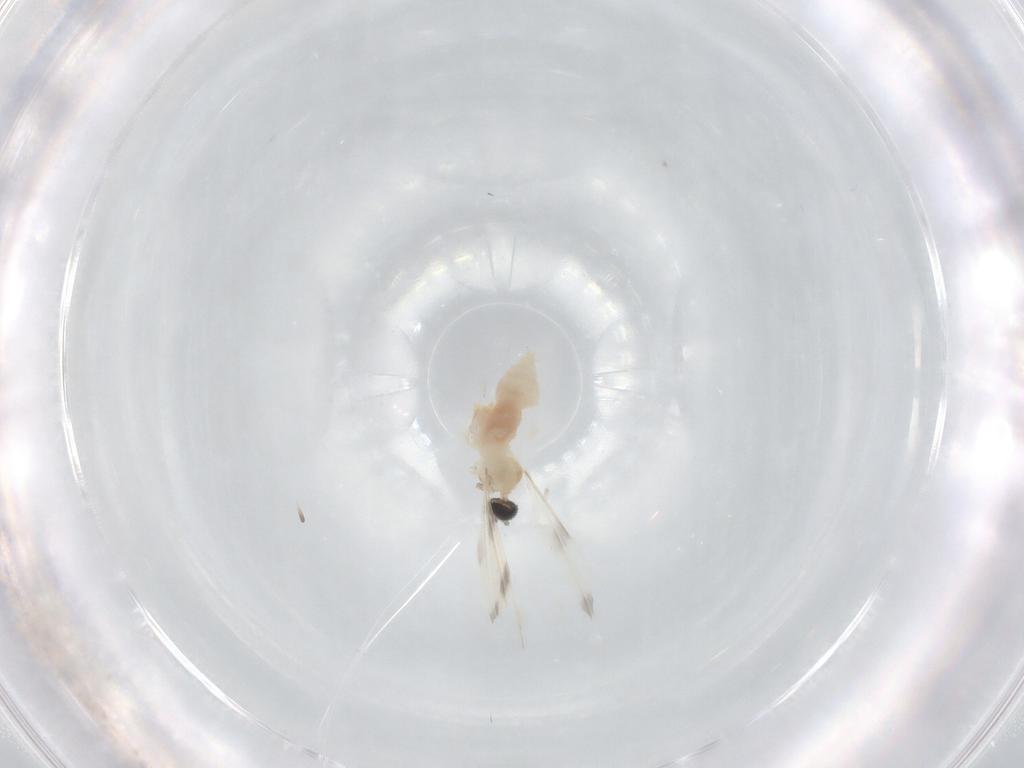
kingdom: Animalia
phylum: Arthropoda
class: Insecta
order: Diptera
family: Cecidomyiidae
